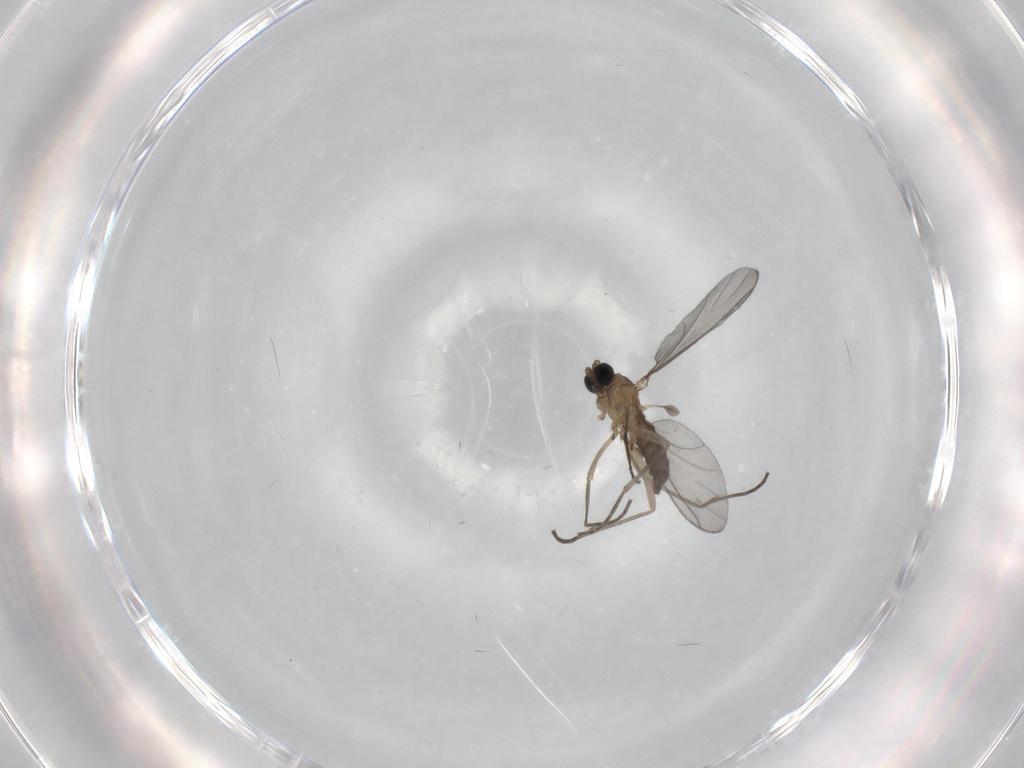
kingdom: Animalia
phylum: Arthropoda
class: Insecta
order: Diptera
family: Sciaridae
